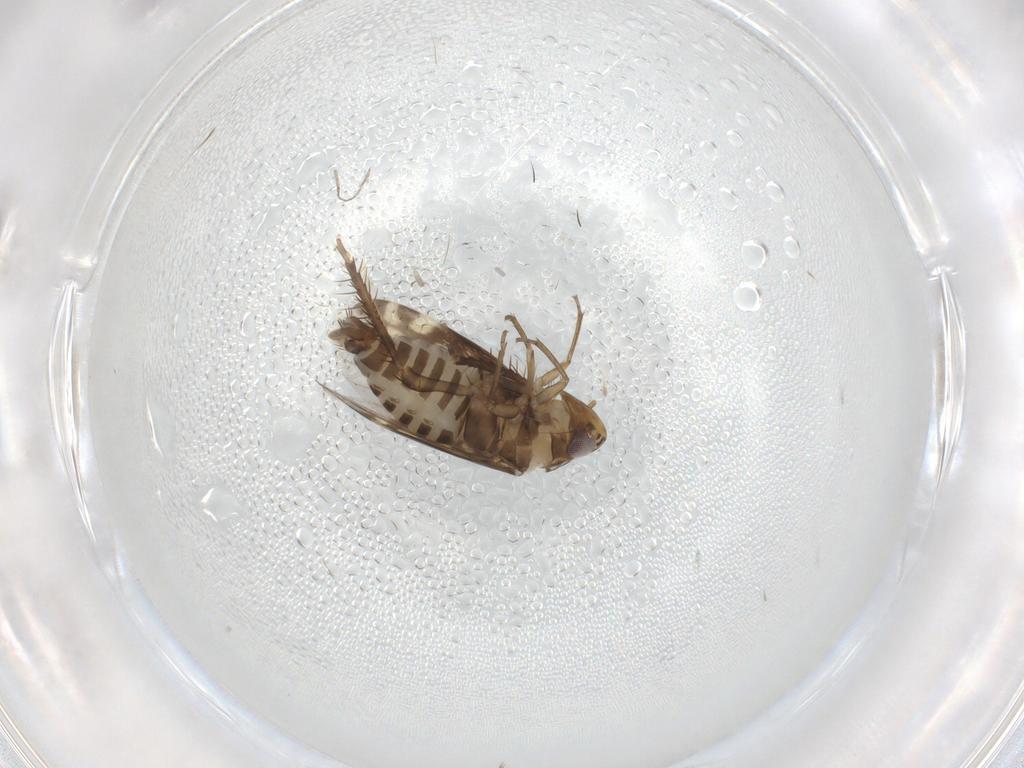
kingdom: Animalia
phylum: Arthropoda
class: Insecta
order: Hemiptera
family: Cicadellidae
